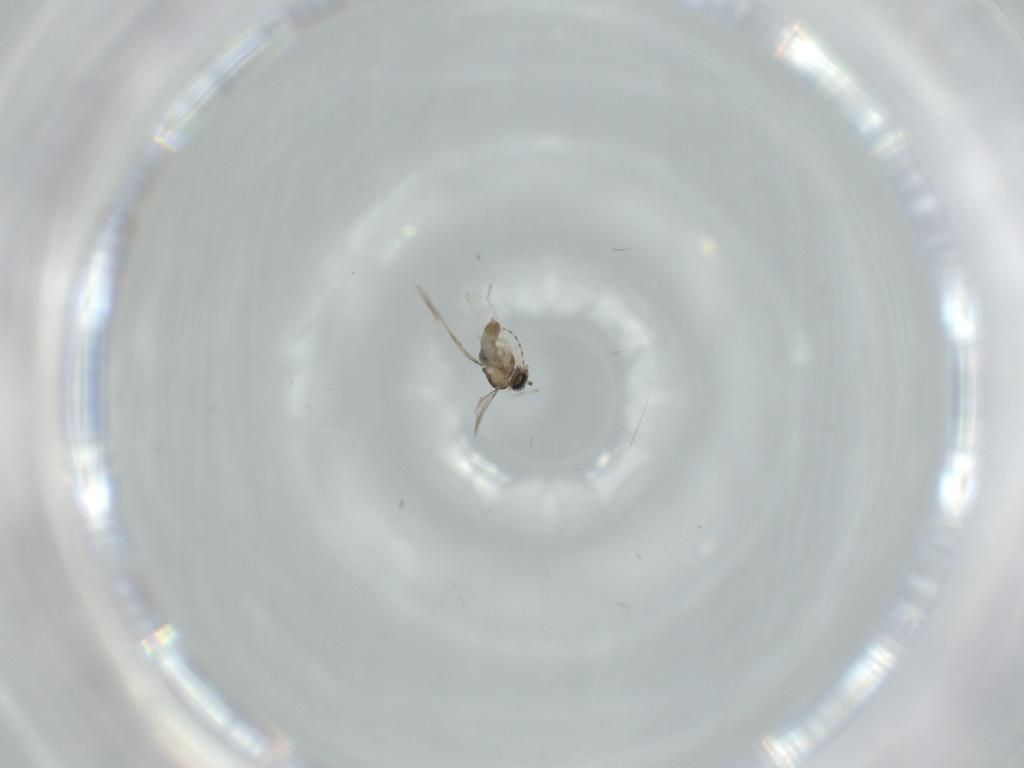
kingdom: Animalia
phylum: Arthropoda
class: Insecta
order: Diptera
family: Cecidomyiidae
